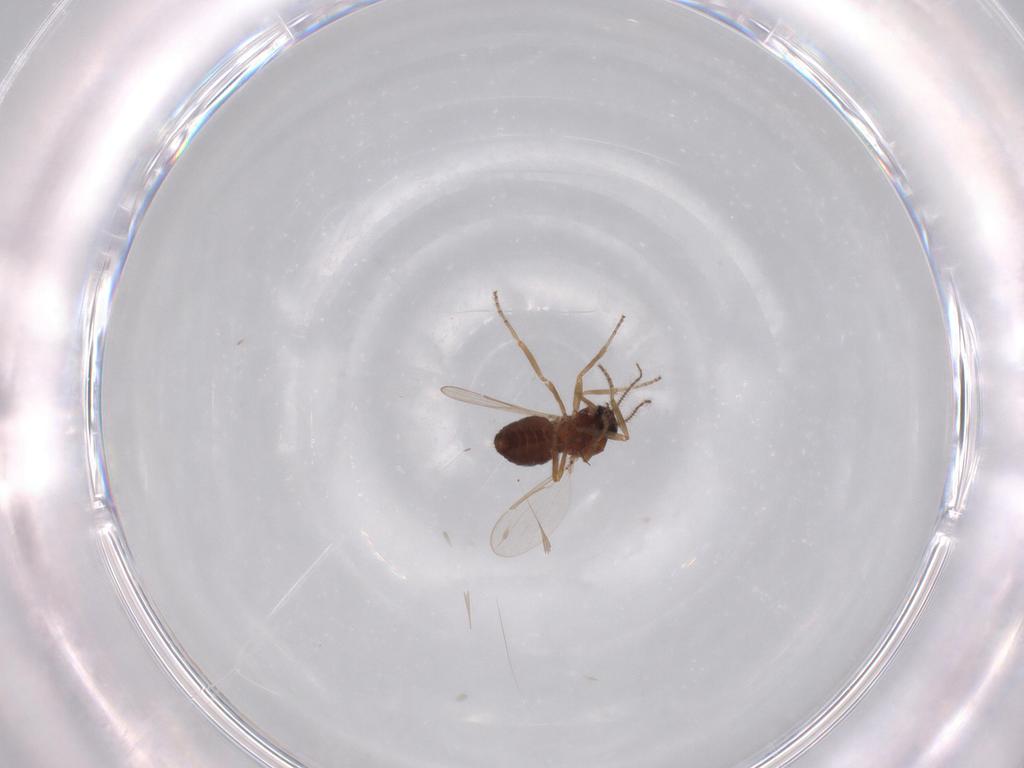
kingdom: Animalia
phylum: Arthropoda
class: Insecta
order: Diptera
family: Ceratopogonidae
